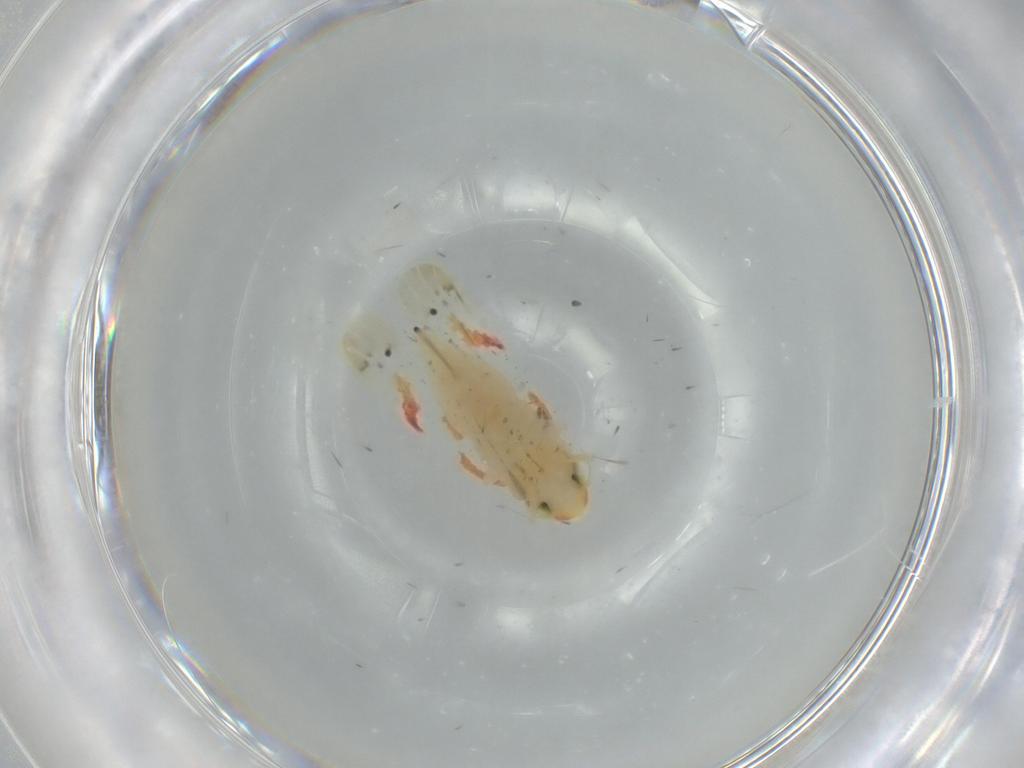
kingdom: Animalia
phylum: Arthropoda
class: Insecta
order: Hemiptera
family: Cicadellidae
